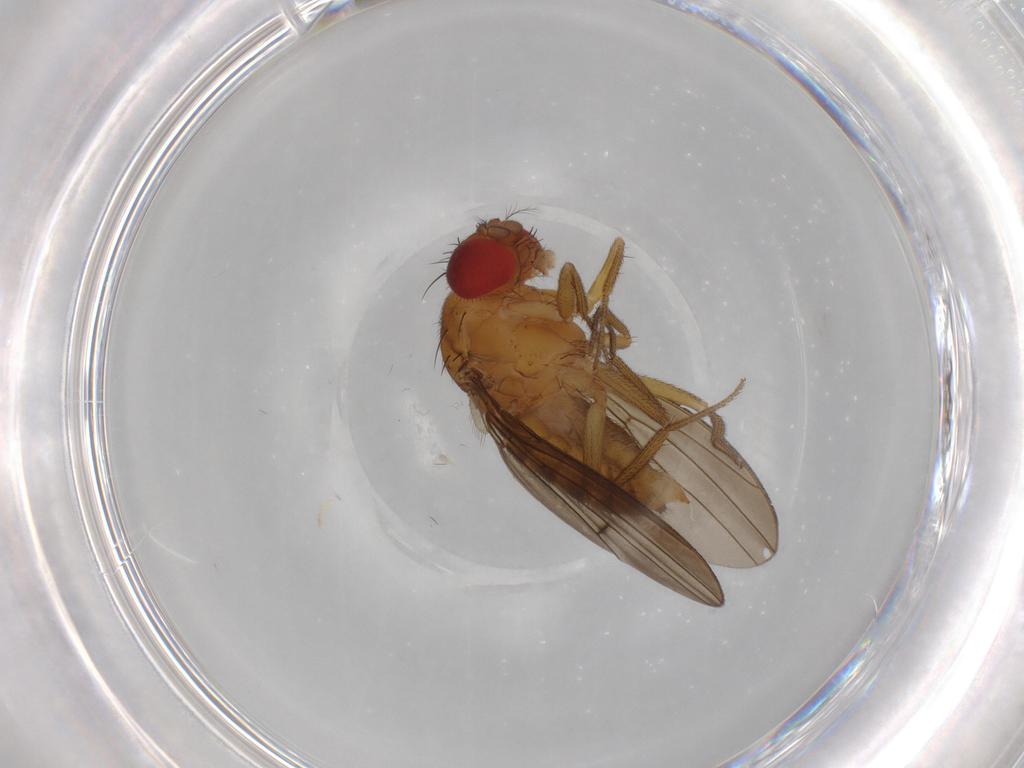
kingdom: Animalia
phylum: Arthropoda
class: Insecta
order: Diptera
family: Drosophilidae
